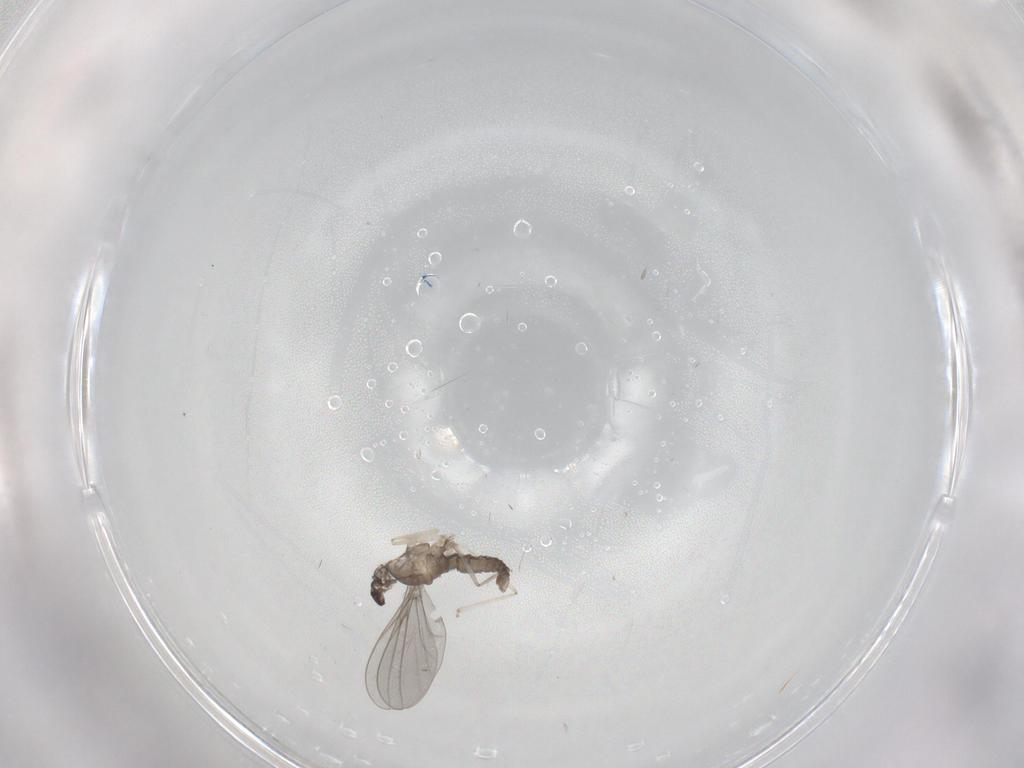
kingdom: Animalia
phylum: Arthropoda
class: Insecta
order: Diptera
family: Cecidomyiidae
